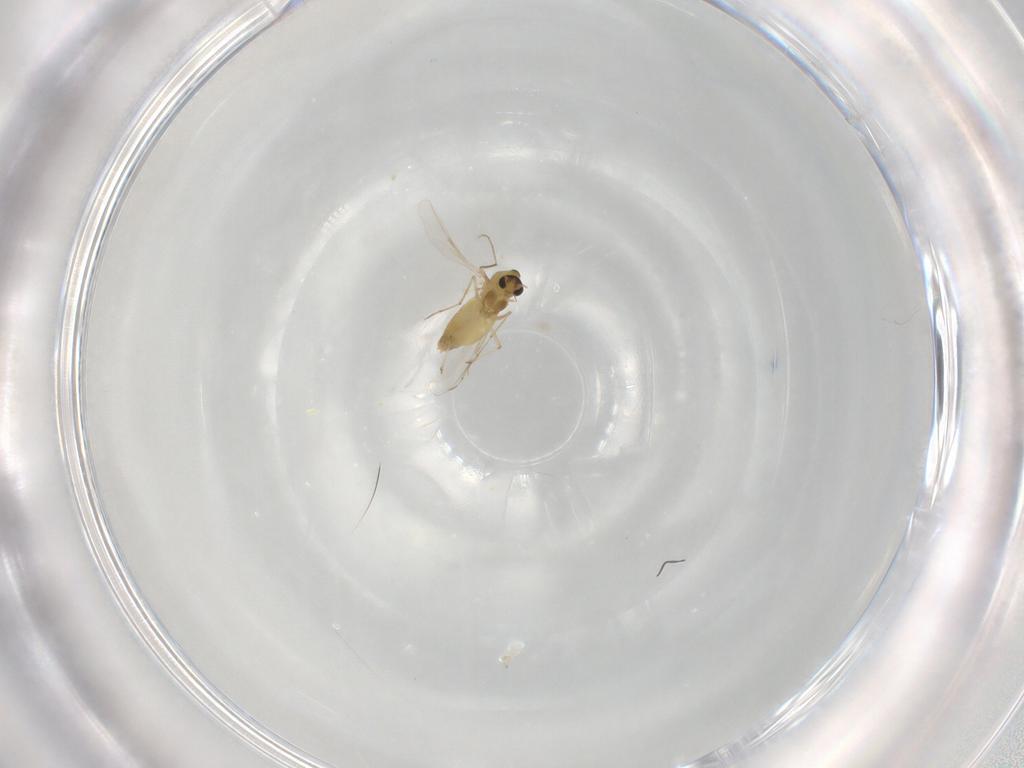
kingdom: Animalia
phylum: Arthropoda
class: Insecta
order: Diptera
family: Chironomidae
